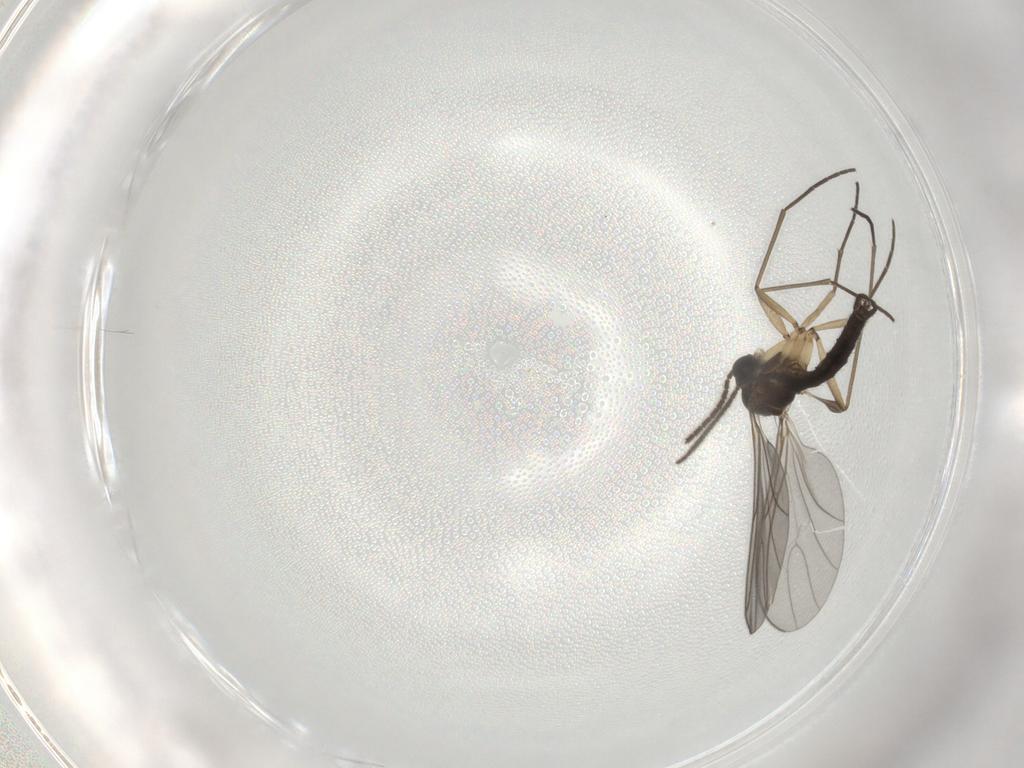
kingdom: Animalia
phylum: Arthropoda
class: Insecta
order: Diptera
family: Sciaridae
